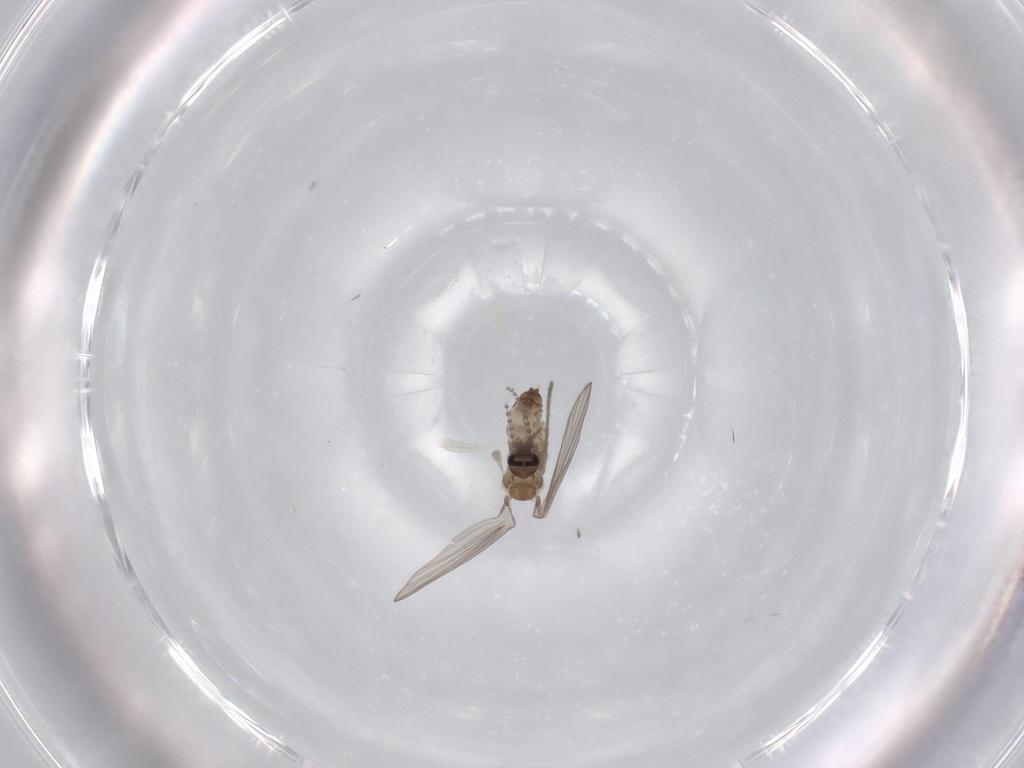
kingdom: Animalia
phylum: Arthropoda
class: Insecta
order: Diptera
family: Psychodidae
